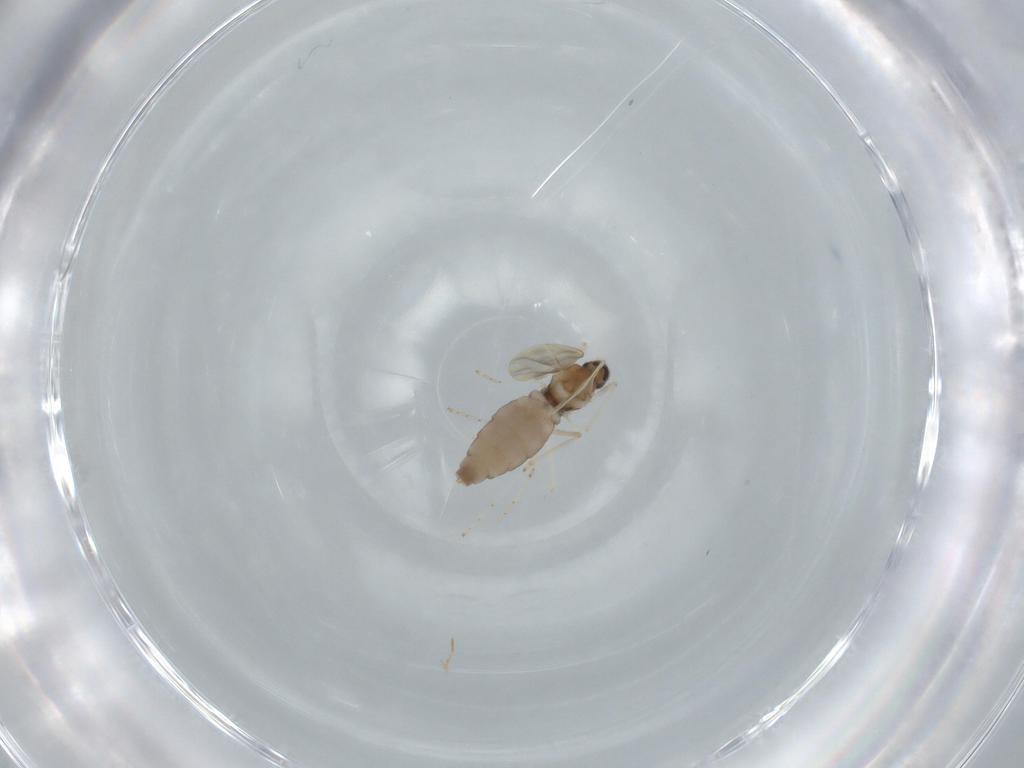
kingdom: Animalia
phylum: Arthropoda
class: Insecta
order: Diptera
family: Cecidomyiidae
